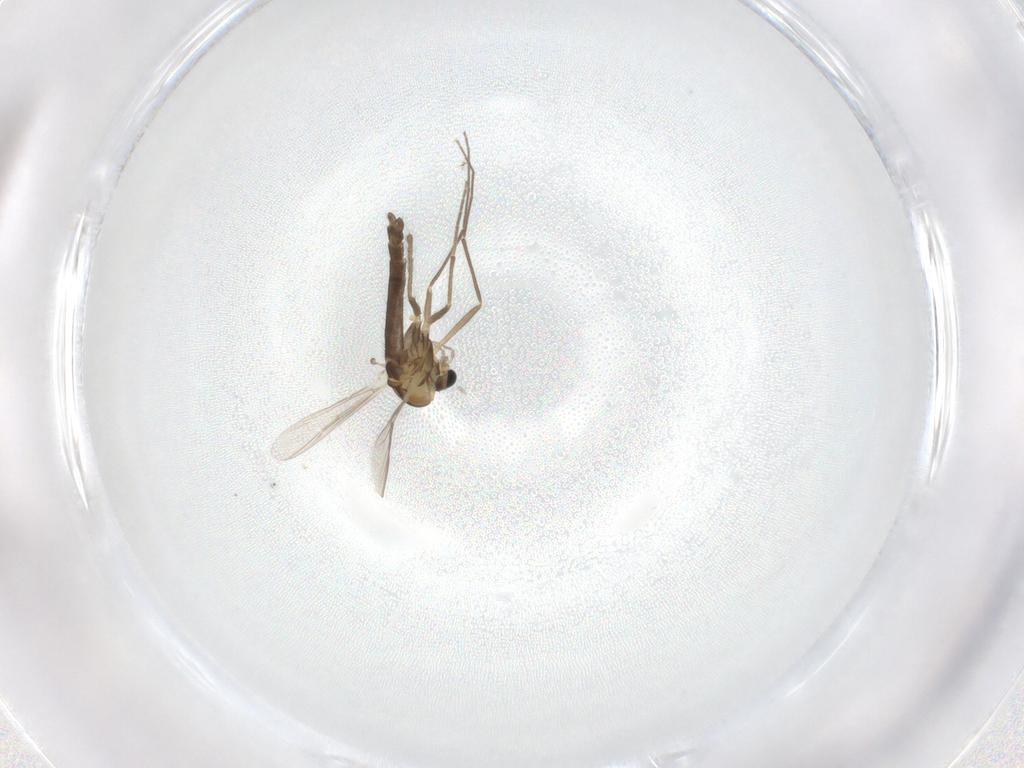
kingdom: Animalia
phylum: Arthropoda
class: Insecta
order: Diptera
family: Chironomidae
